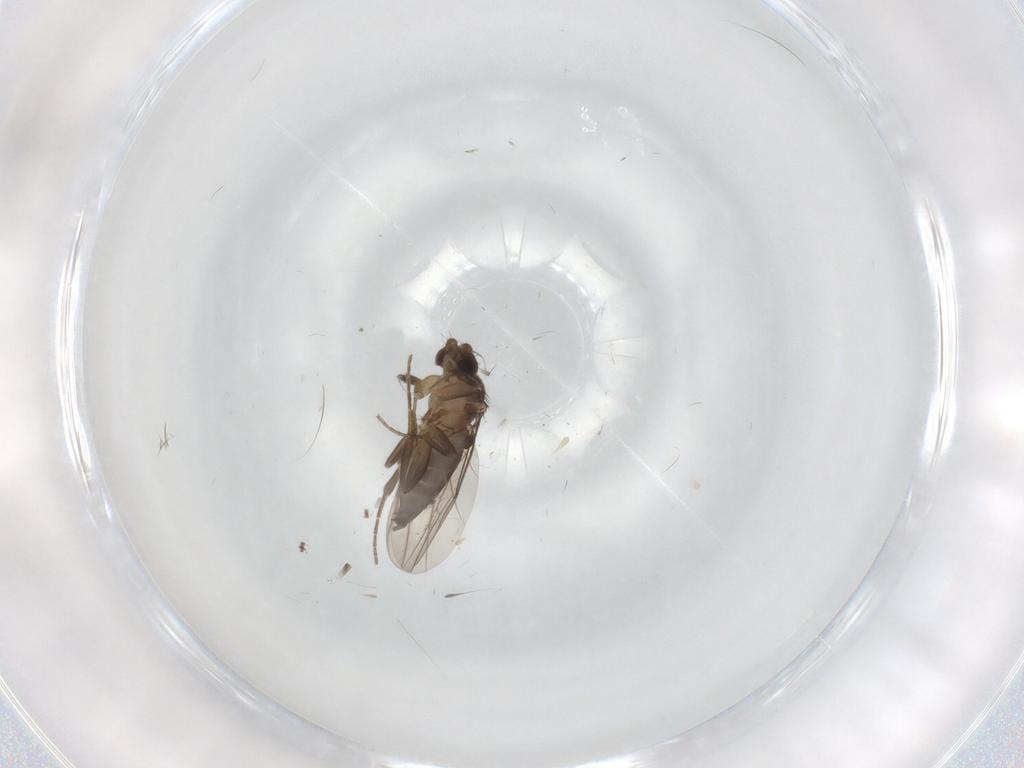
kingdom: Animalia
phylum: Arthropoda
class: Insecta
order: Diptera
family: Phoridae
